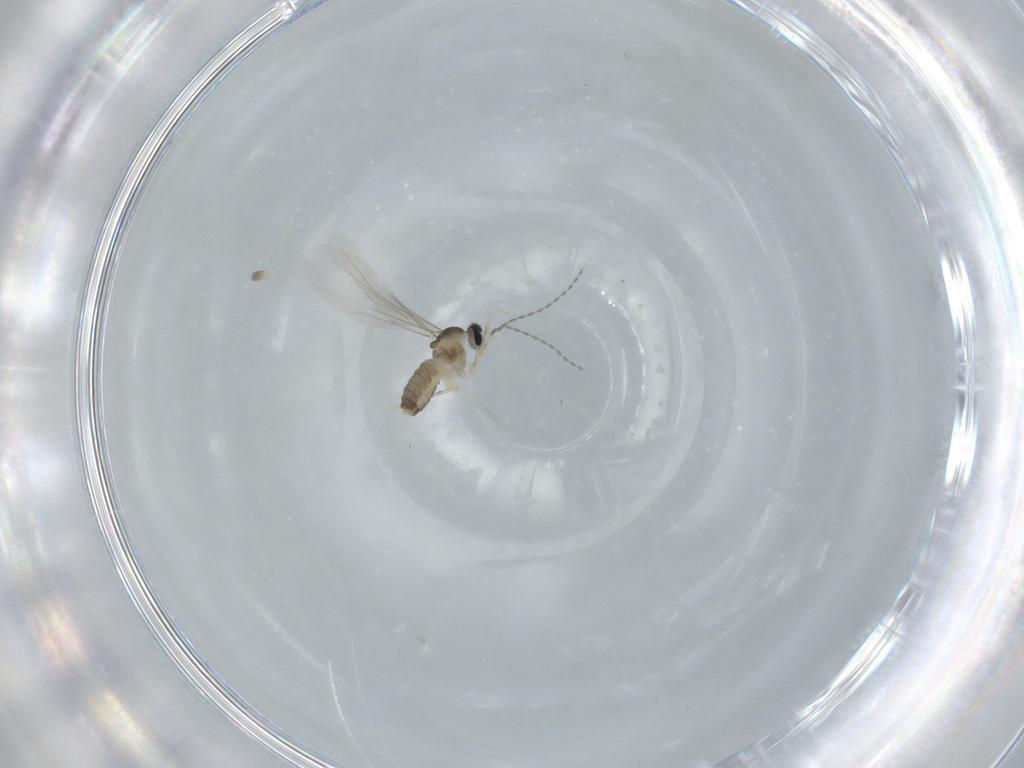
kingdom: Animalia
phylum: Arthropoda
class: Insecta
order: Diptera
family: Cecidomyiidae
